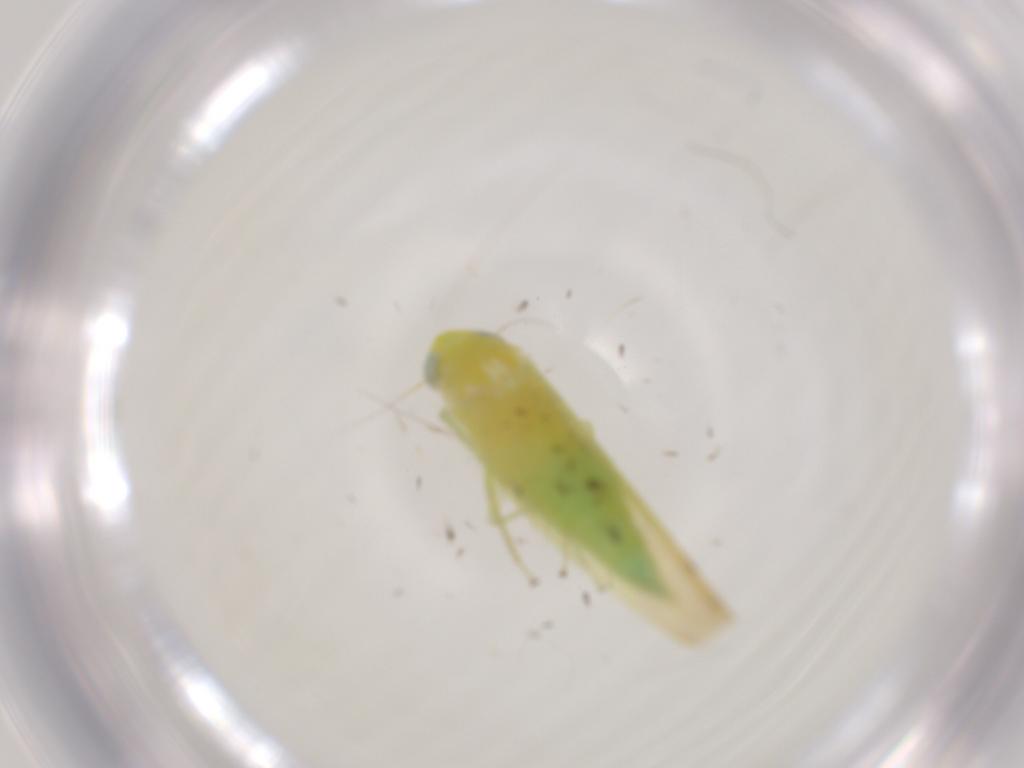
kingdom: Animalia
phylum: Arthropoda
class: Insecta
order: Hemiptera
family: Cicadellidae
